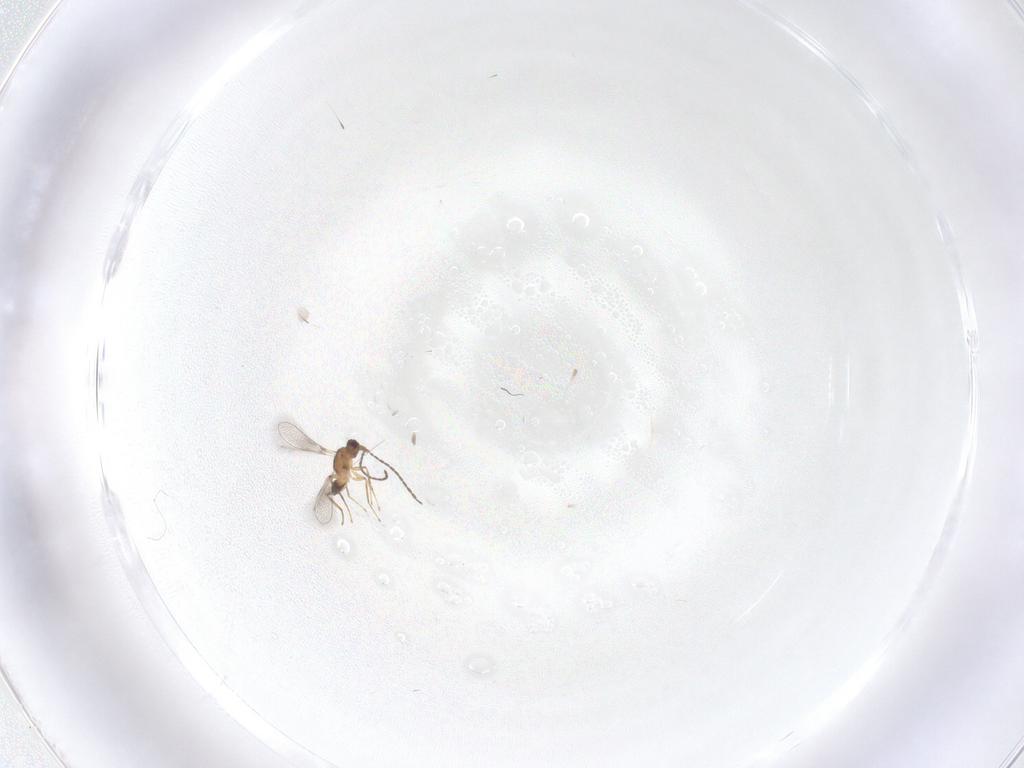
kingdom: Animalia
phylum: Arthropoda
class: Insecta
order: Hymenoptera
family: Mymaridae
